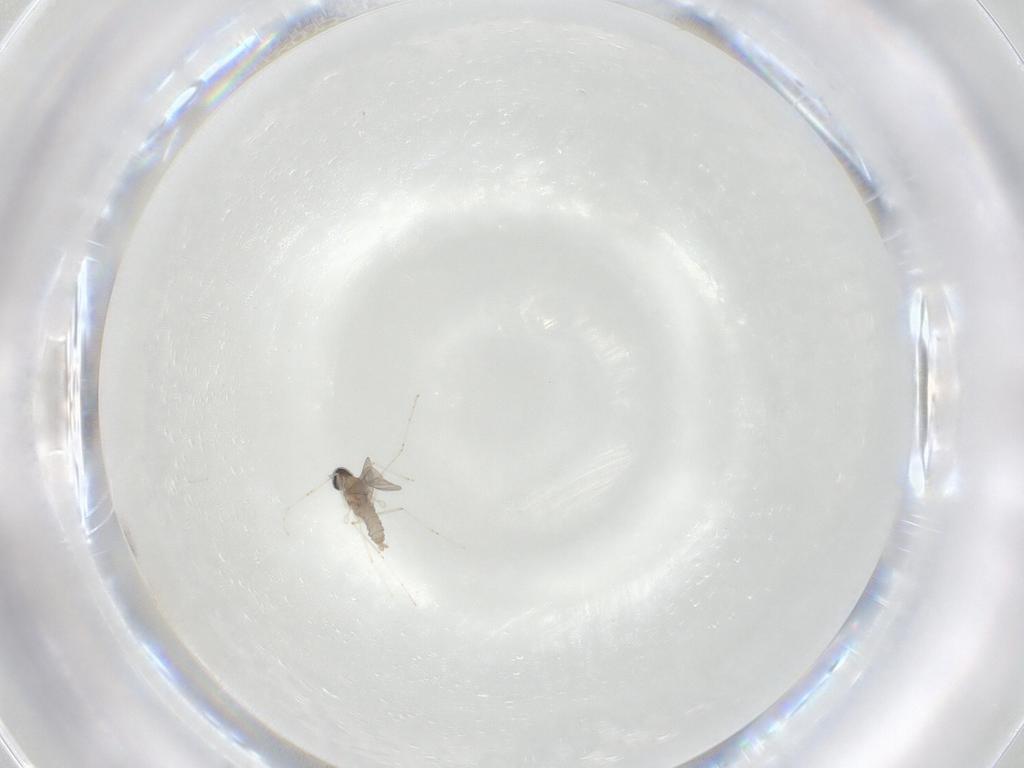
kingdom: Animalia
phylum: Arthropoda
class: Insecta
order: Diptera
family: Cecidomyiidae
